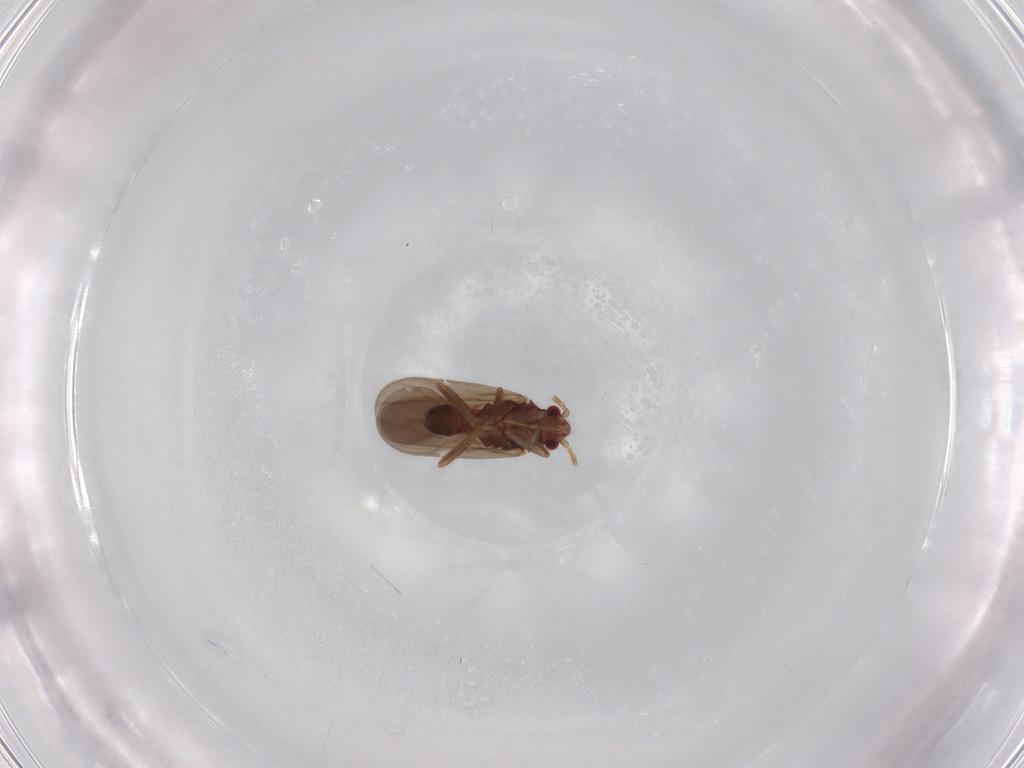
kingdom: Animalia
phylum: Arthropoda
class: Insecta
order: Hemiptera
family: Ceratocombidae
